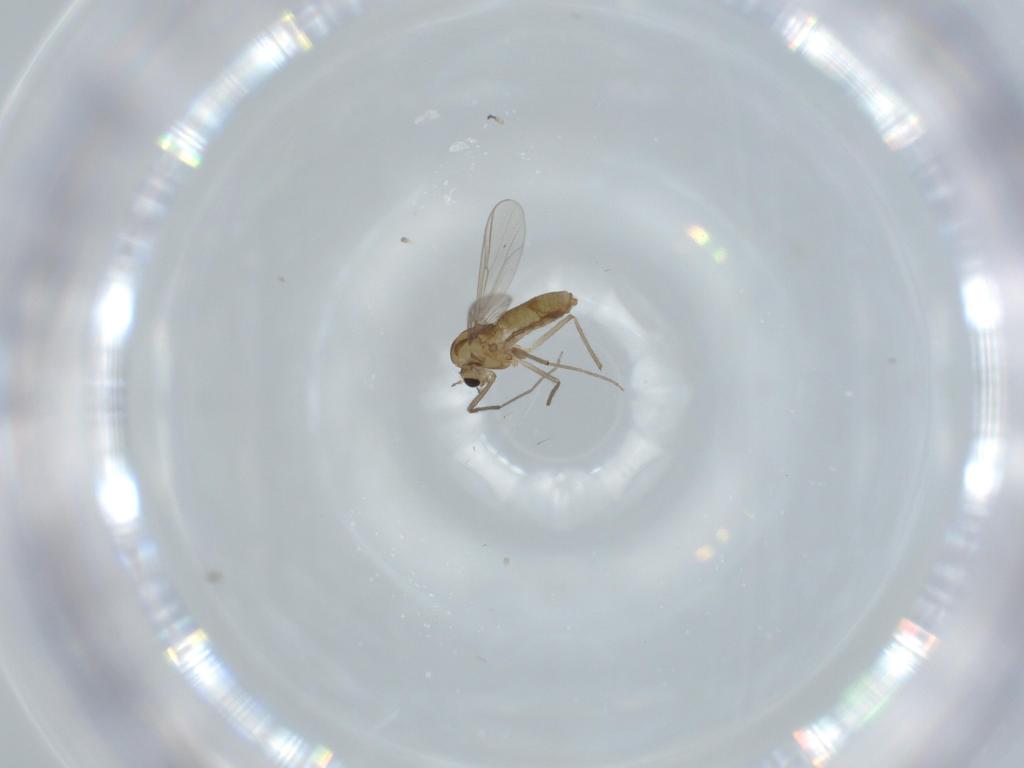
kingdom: Animalia
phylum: Arthropoda
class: Insecta
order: Diptera
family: Chironomidae
